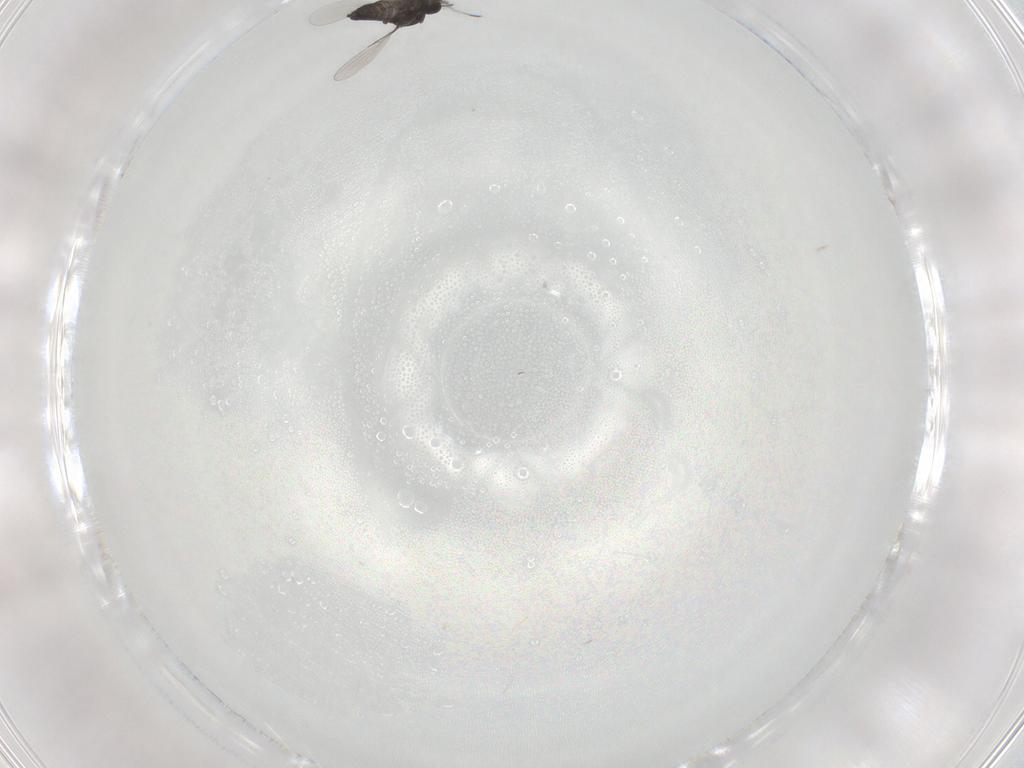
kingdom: Animalia
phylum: Arthropoda
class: Insecta
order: Diptera
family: Ceratopogonidae
